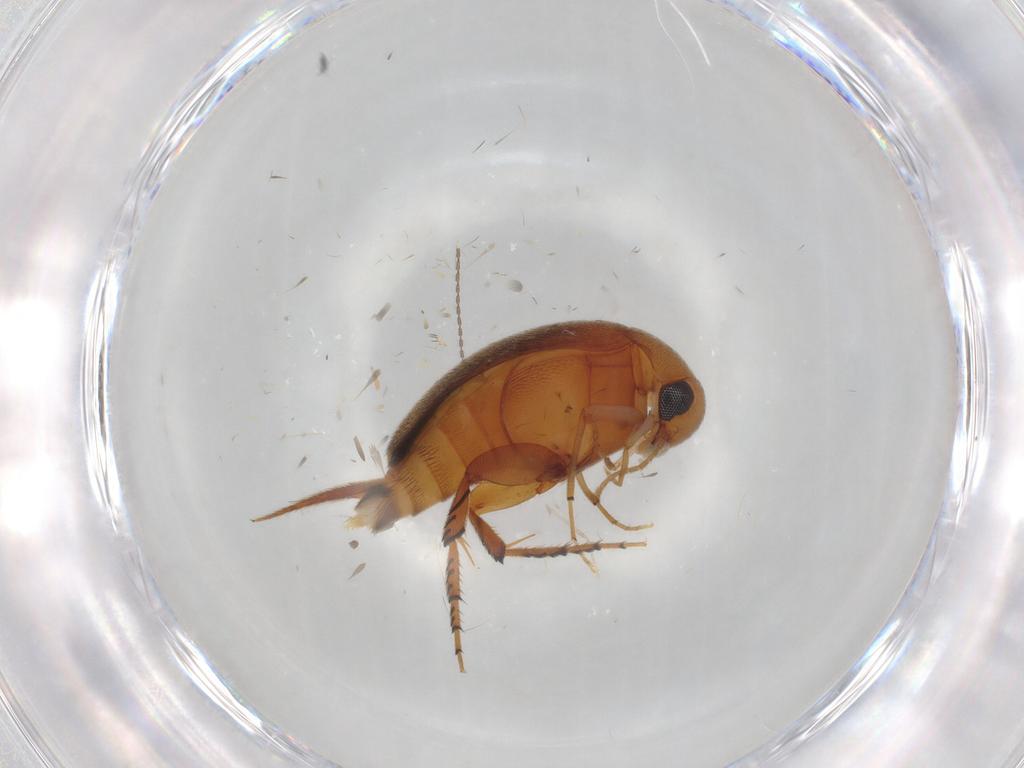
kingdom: Animalia
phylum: Arthropoda
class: Insecta
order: Coleoptera
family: Mordellidae
